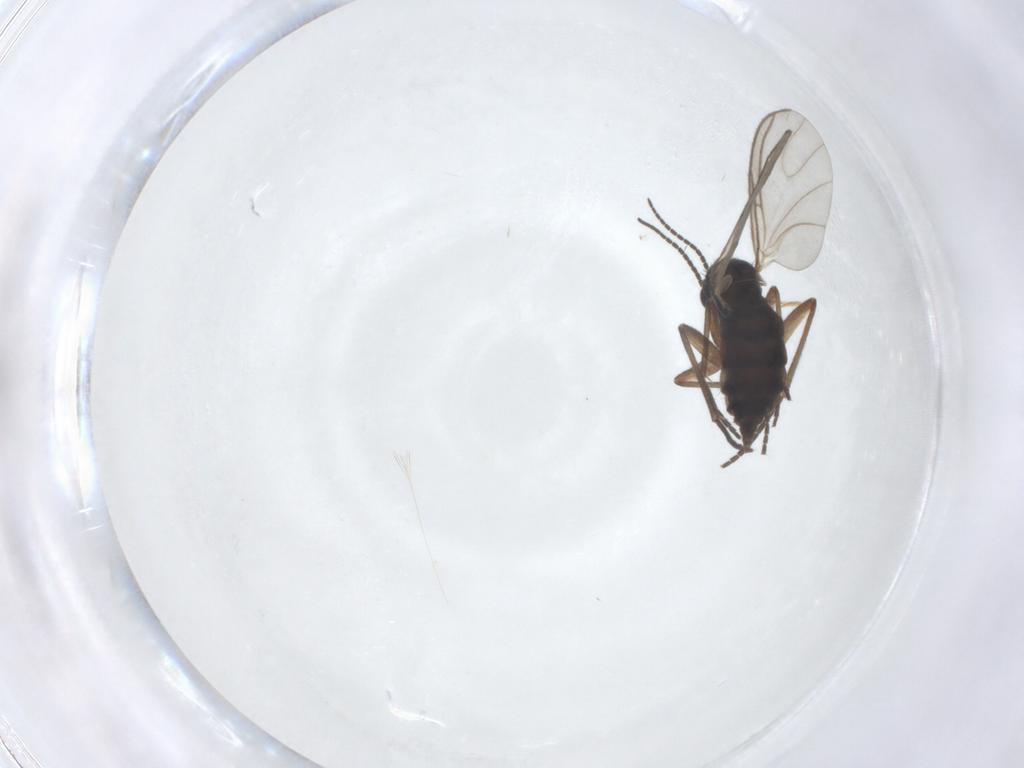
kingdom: Animalia
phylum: Arthropoda
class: Insecta
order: Diptera
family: Sciaridae
